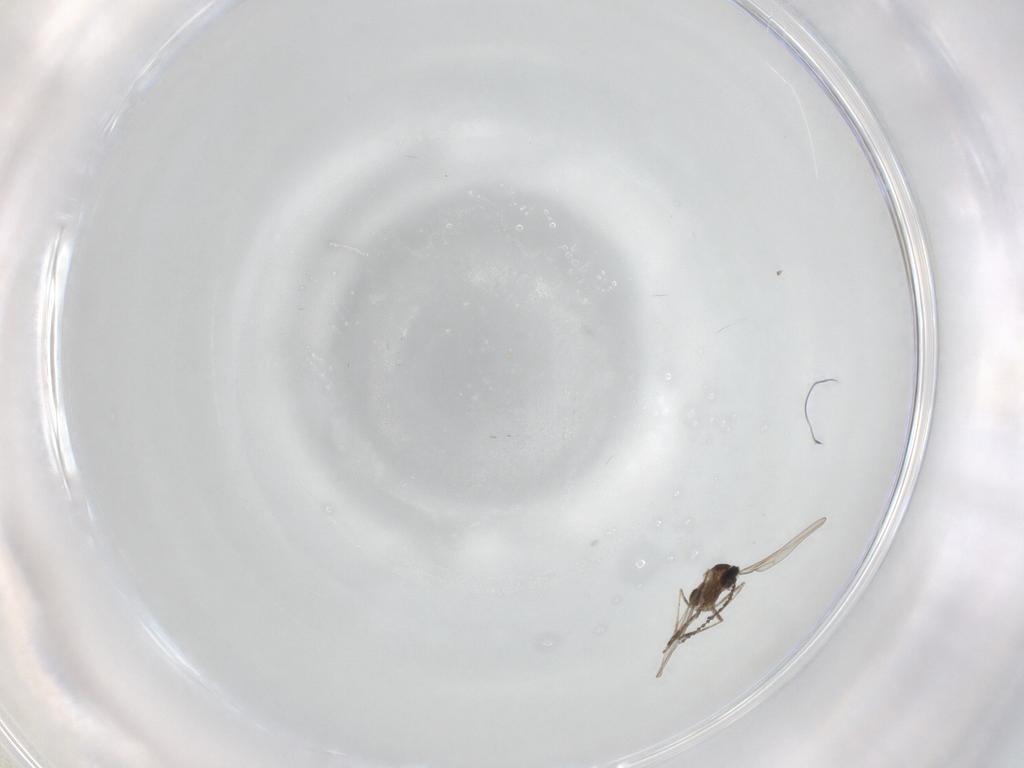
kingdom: Animalia
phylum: Arthropoda
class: Insecta
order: Diptera
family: Cecidomyiidae
